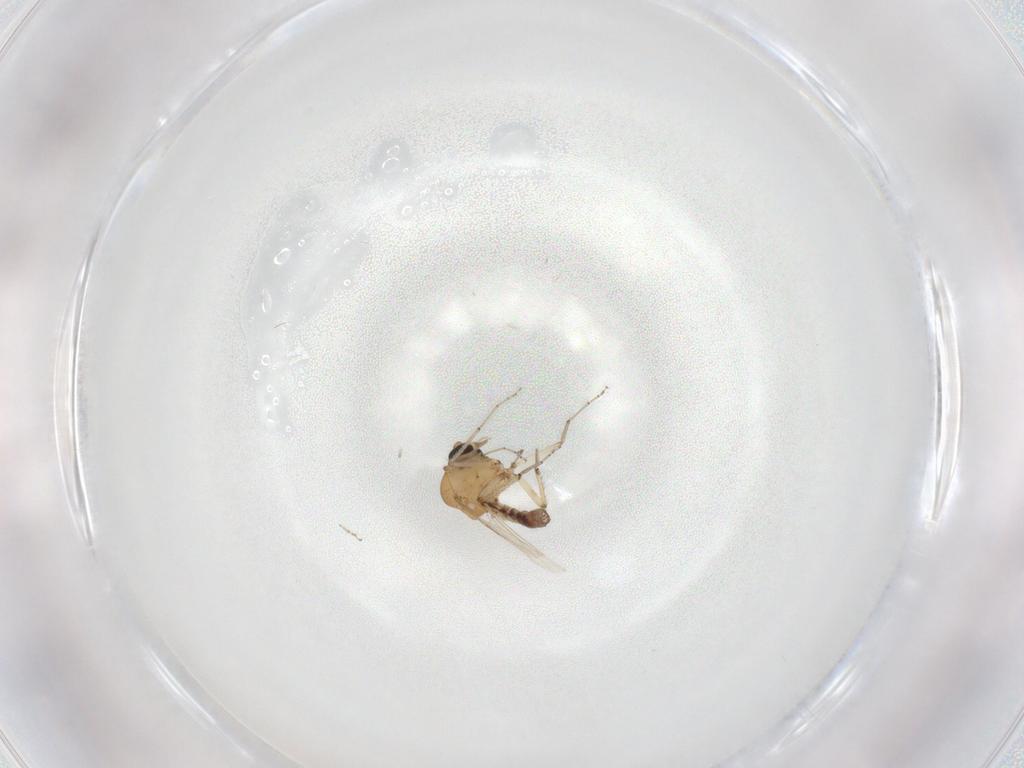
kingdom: Animalia
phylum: Arthropoda
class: Insecta
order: Diptera
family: Ceratopogonidae
